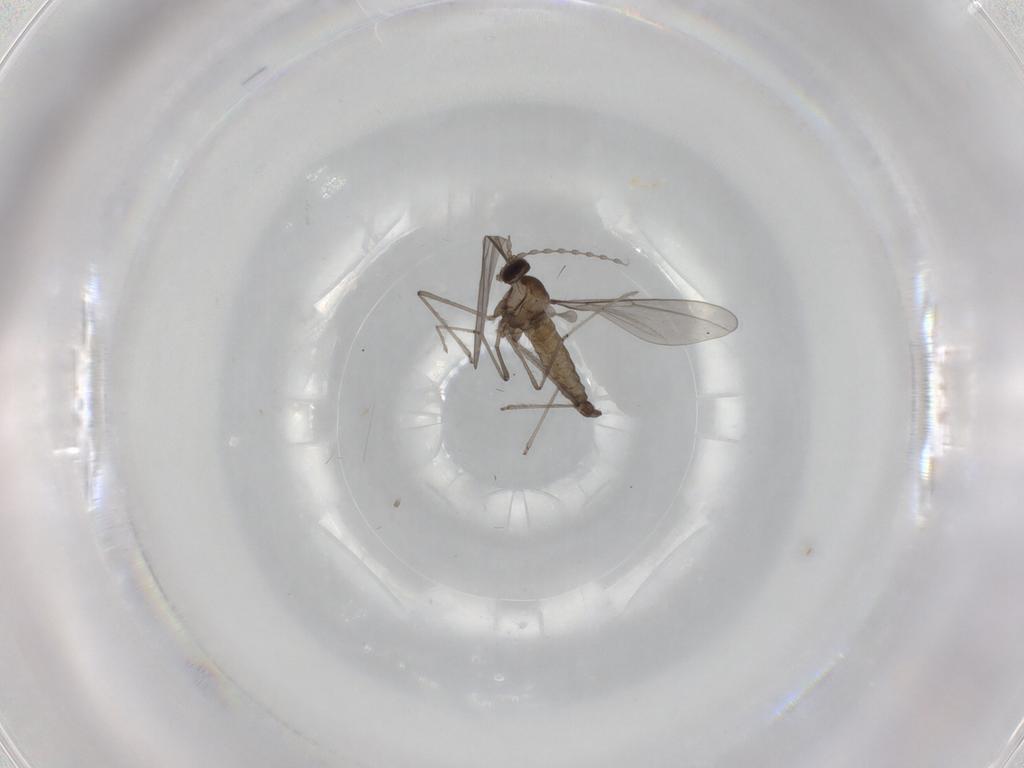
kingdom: Animalia
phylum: Arthropoda
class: Insecta
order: Diptera
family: Cecidomyiidae
